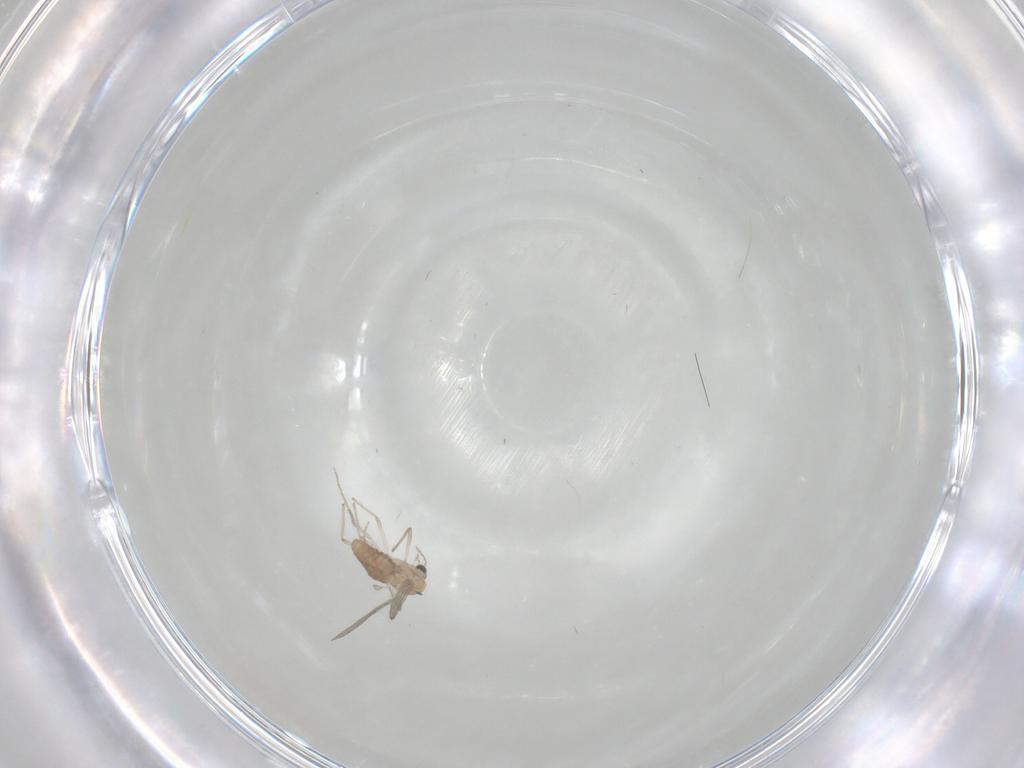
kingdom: Animalia
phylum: Arthropoda
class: Insecta
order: Diptera
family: Chironomidae
